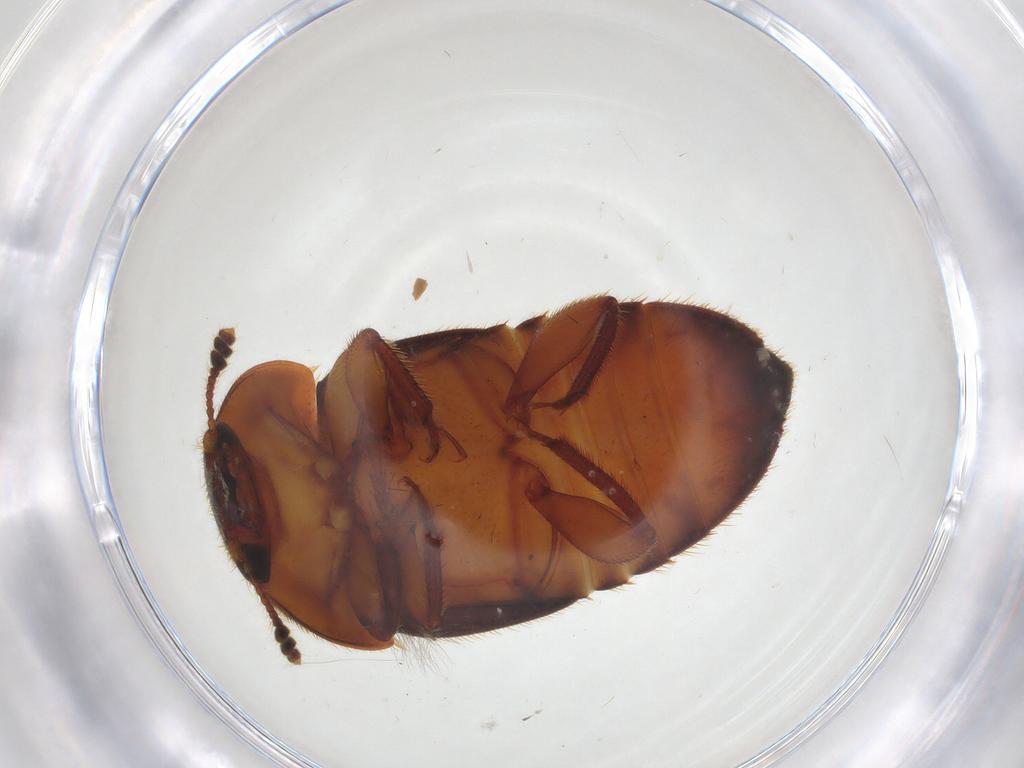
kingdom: Animalia
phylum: Arthropoda
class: Insecta
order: Coleoptera
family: Nitidulidae
